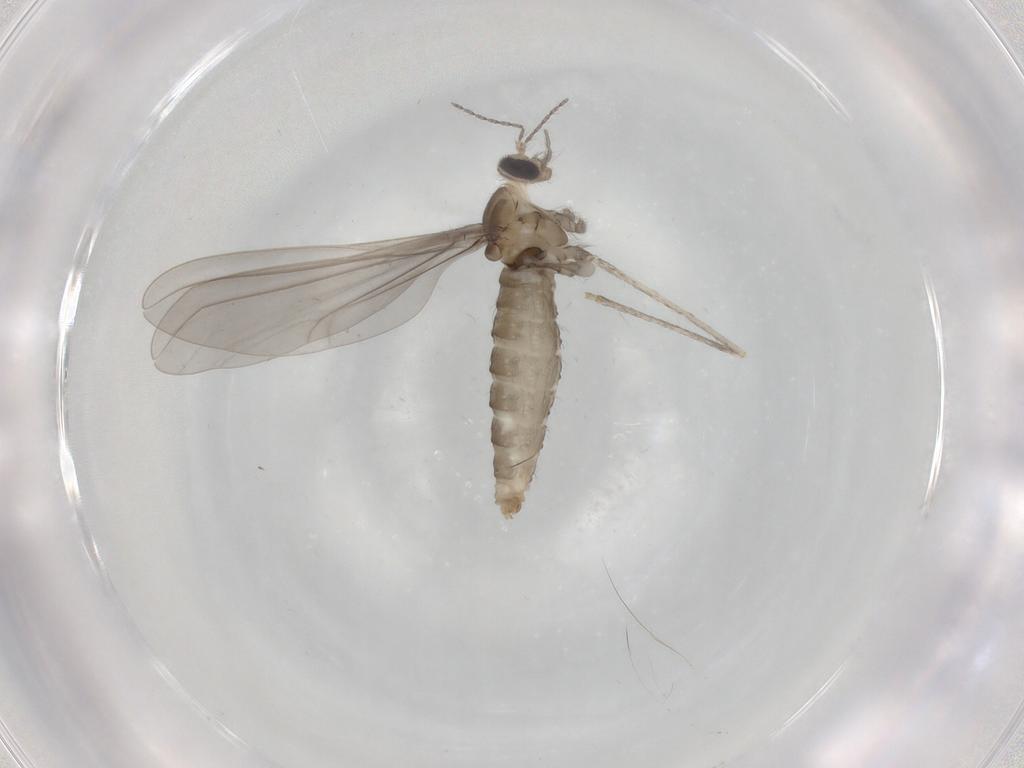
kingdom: Animalia
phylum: Arthropoda
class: Insecta
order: Diptera
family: Cecidomyiidae
